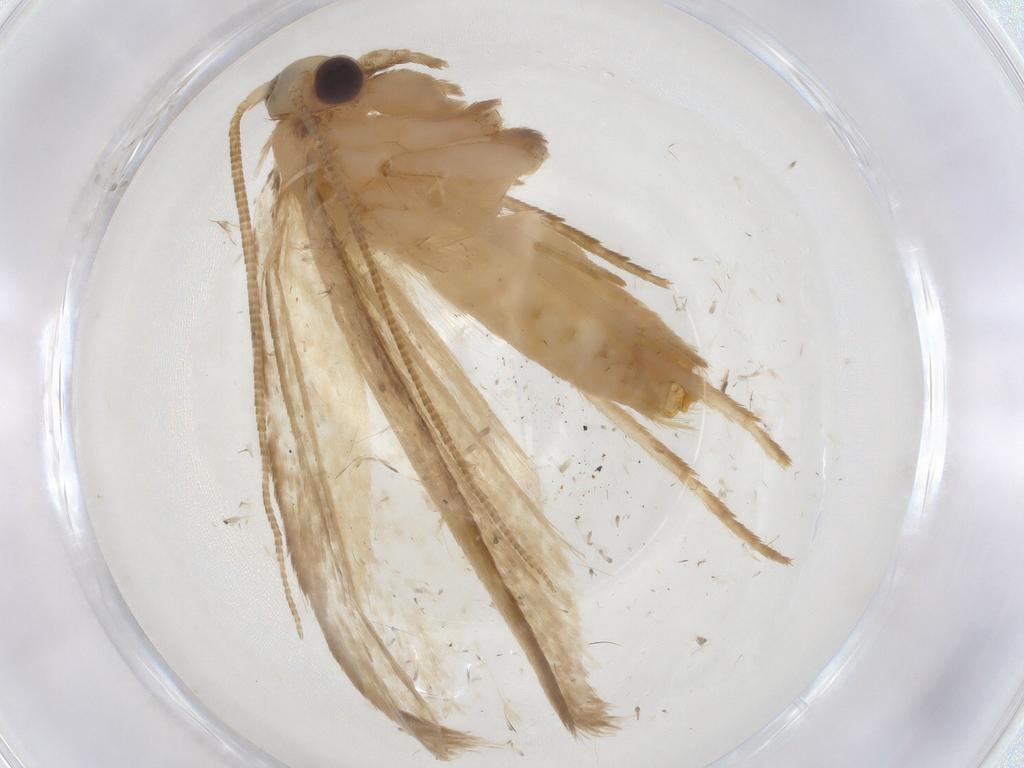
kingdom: Animalia
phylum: Arthropoda
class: Insecta
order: Lepidoptera
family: Tineidae
